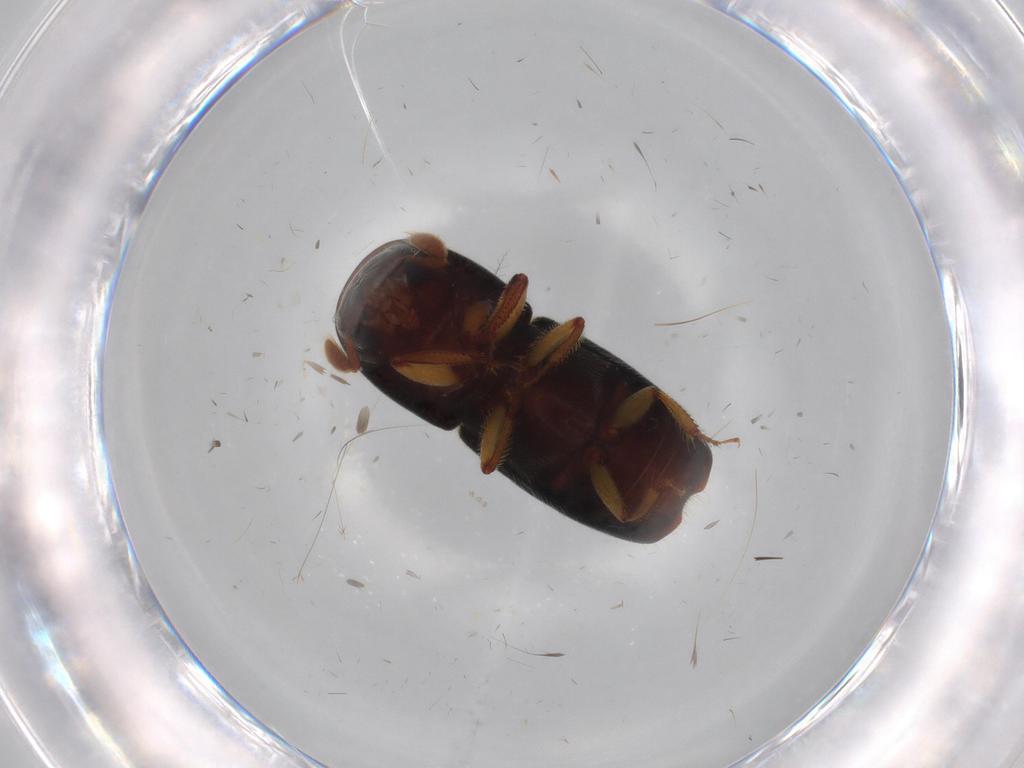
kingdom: Animalia
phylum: Arthropoda
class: Insecta
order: Coleoptera
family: Curculionidae
